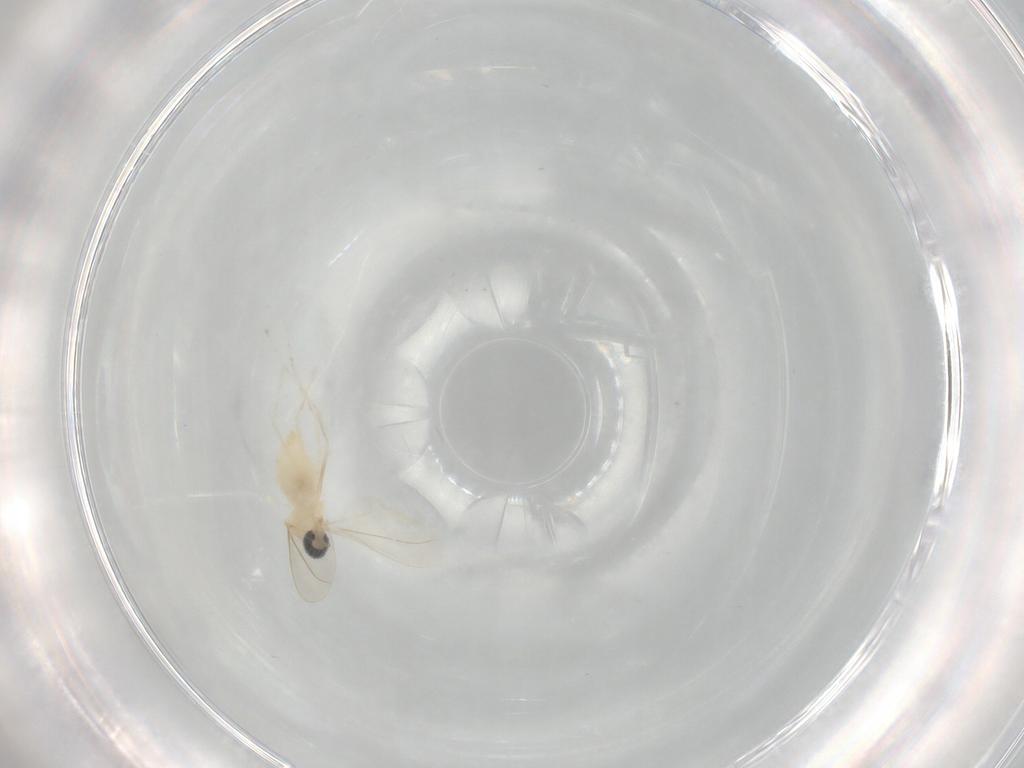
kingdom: Animalia
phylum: Arthropoda
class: Insecta
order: Diptera
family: Cecidomyiidae
